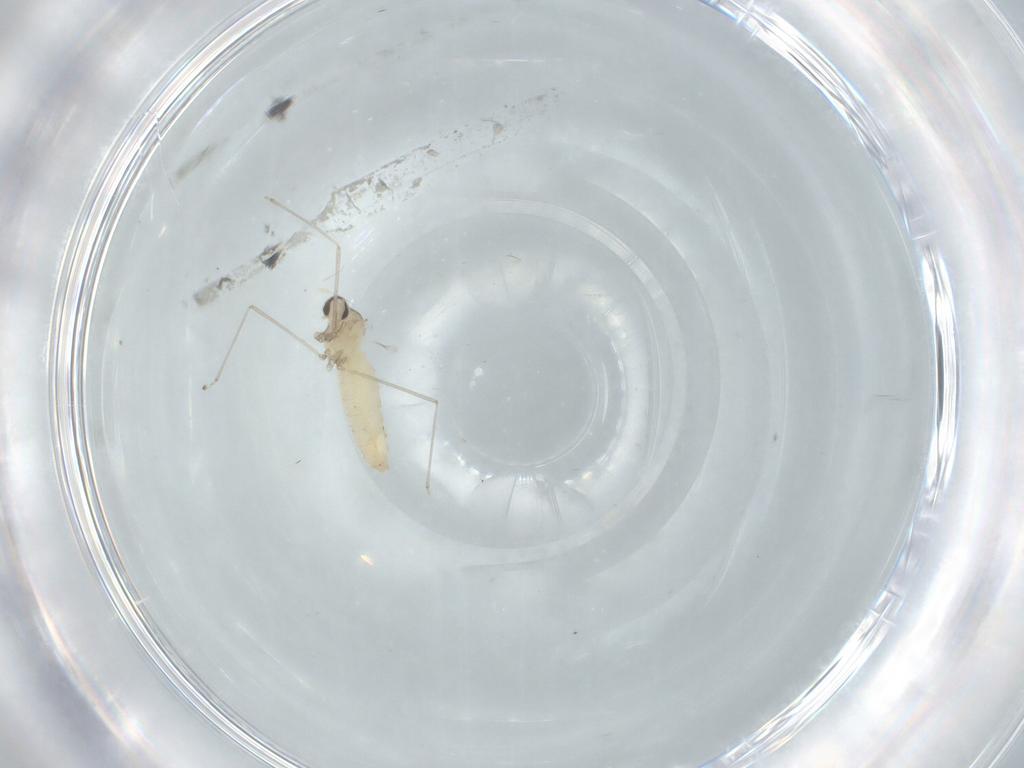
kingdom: Animalia
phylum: Arthropoda
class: Insecta
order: Diptera
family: Cecidomyiidae
